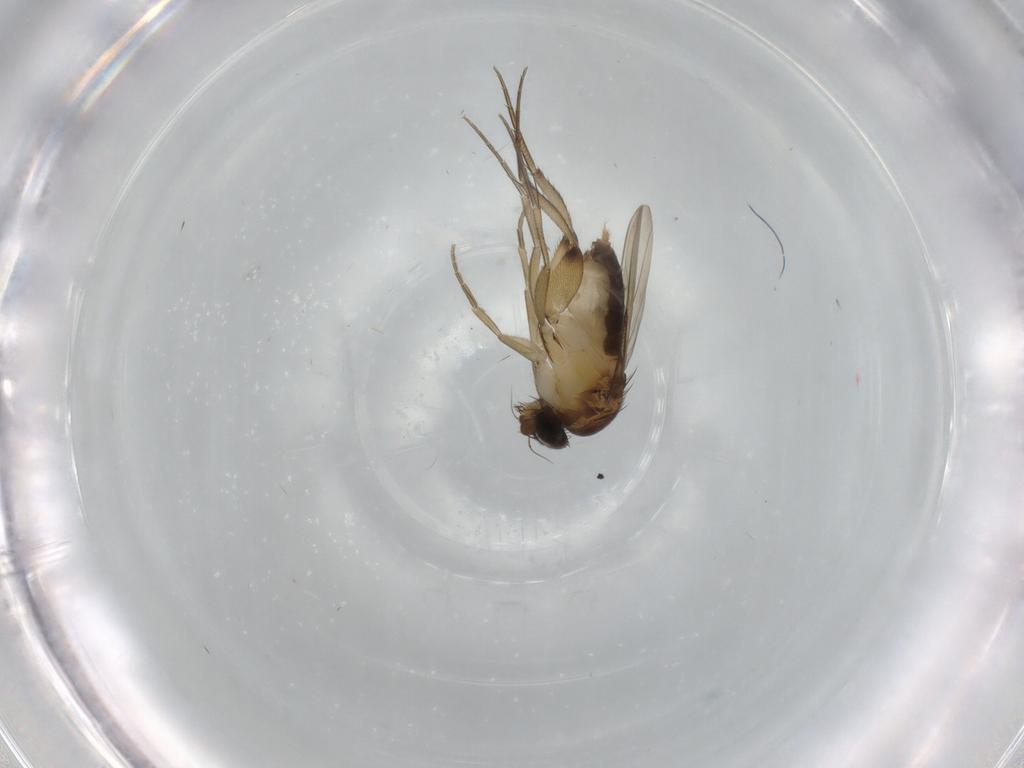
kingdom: Animalia
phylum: Arthropoda
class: Insecta
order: Diptera
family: Phoridae
